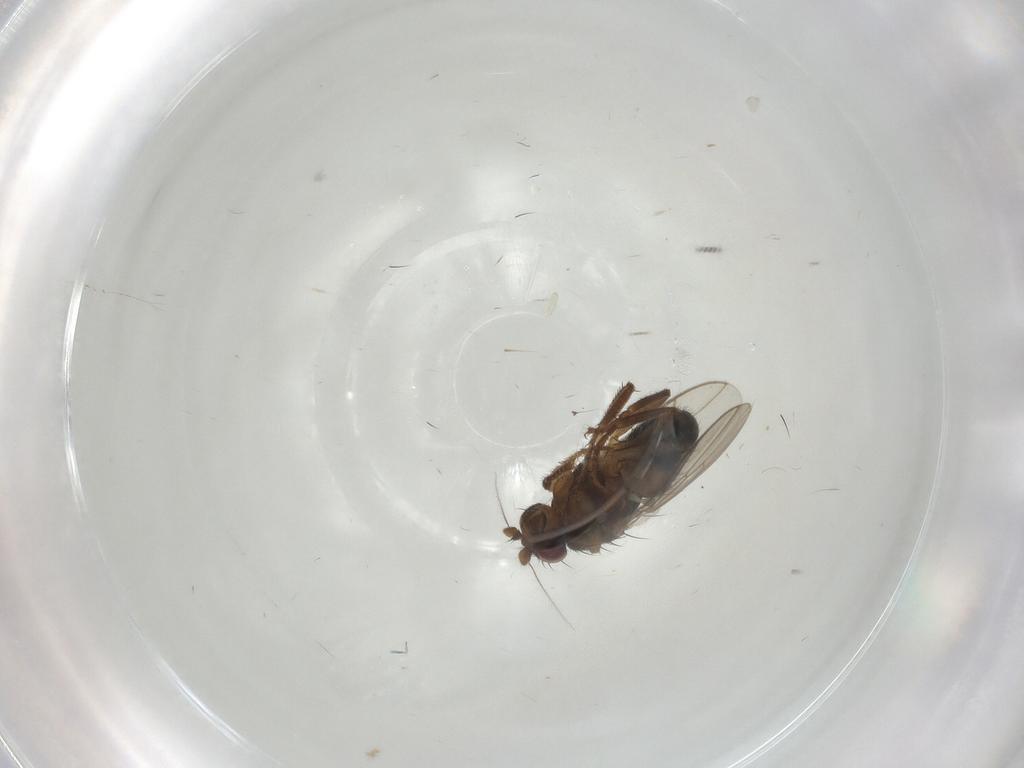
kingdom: Animalia
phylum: Arthropoda
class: Insecta
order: Diptera
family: Sphaeroceridae
